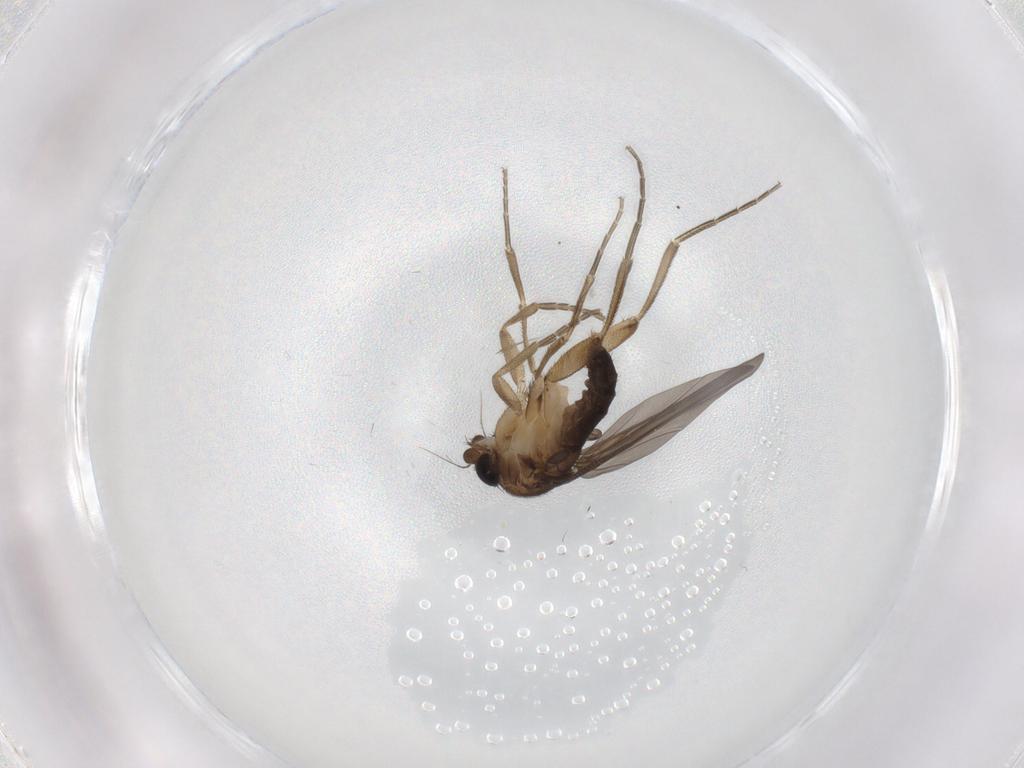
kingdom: Animalia
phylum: Arthropoda
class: Insecta
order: Diptera
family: Phoridae
